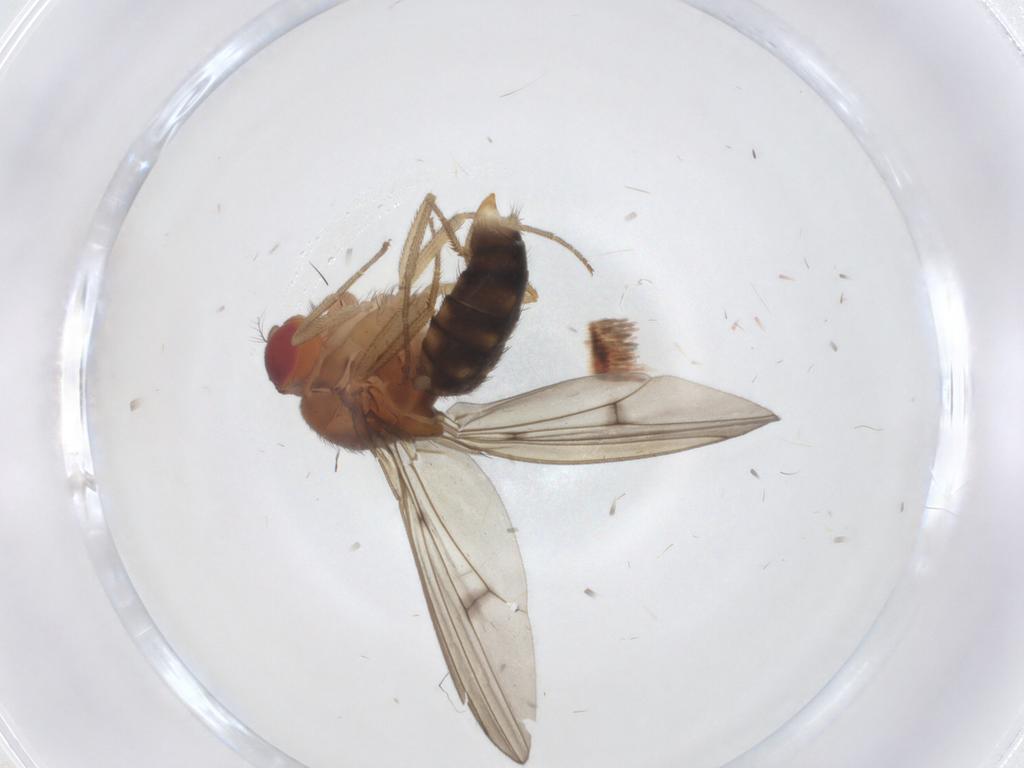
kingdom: Animalia
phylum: Arthropoda
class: Insecta
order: Diptera
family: Drosophilidae
